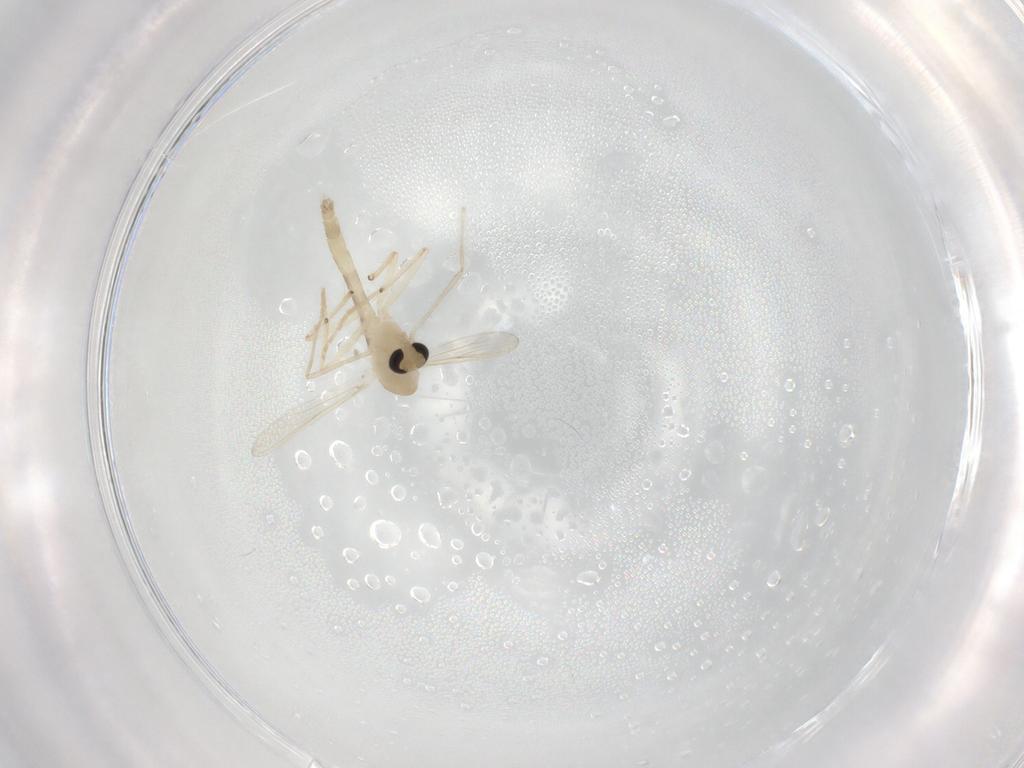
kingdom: Animalia
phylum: Arthropoda
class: Insecta
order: Diptera
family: Chironomidae
